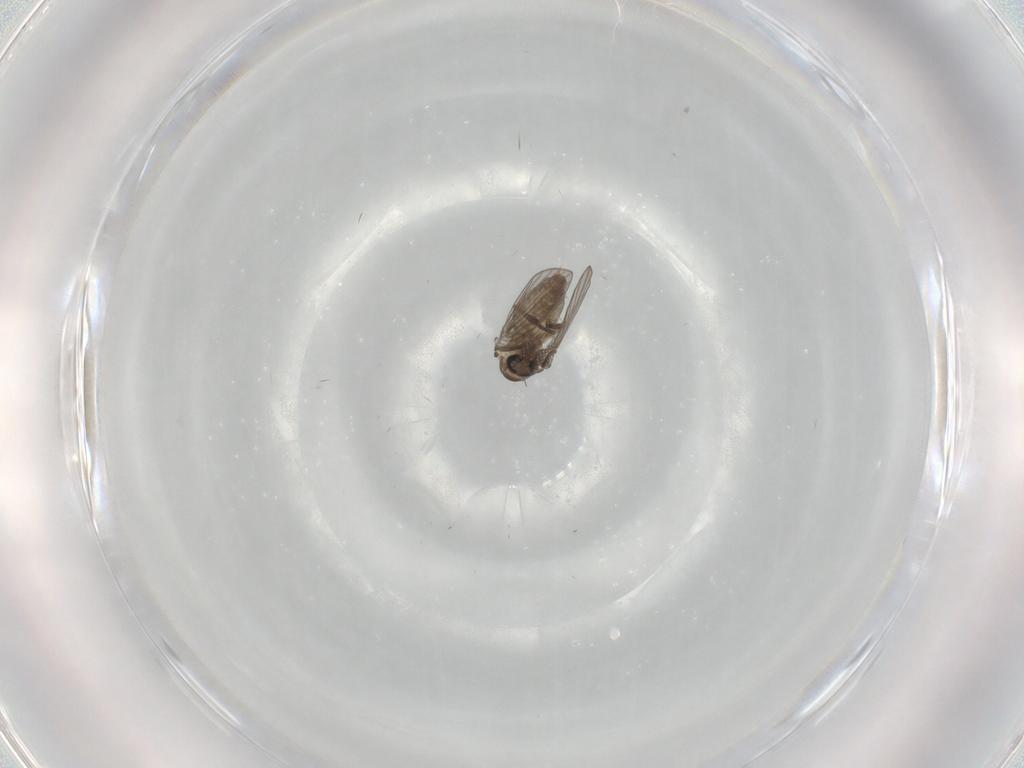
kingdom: Animalia
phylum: Arthropoda
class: Insecta
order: Diptera
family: Psychodidae
